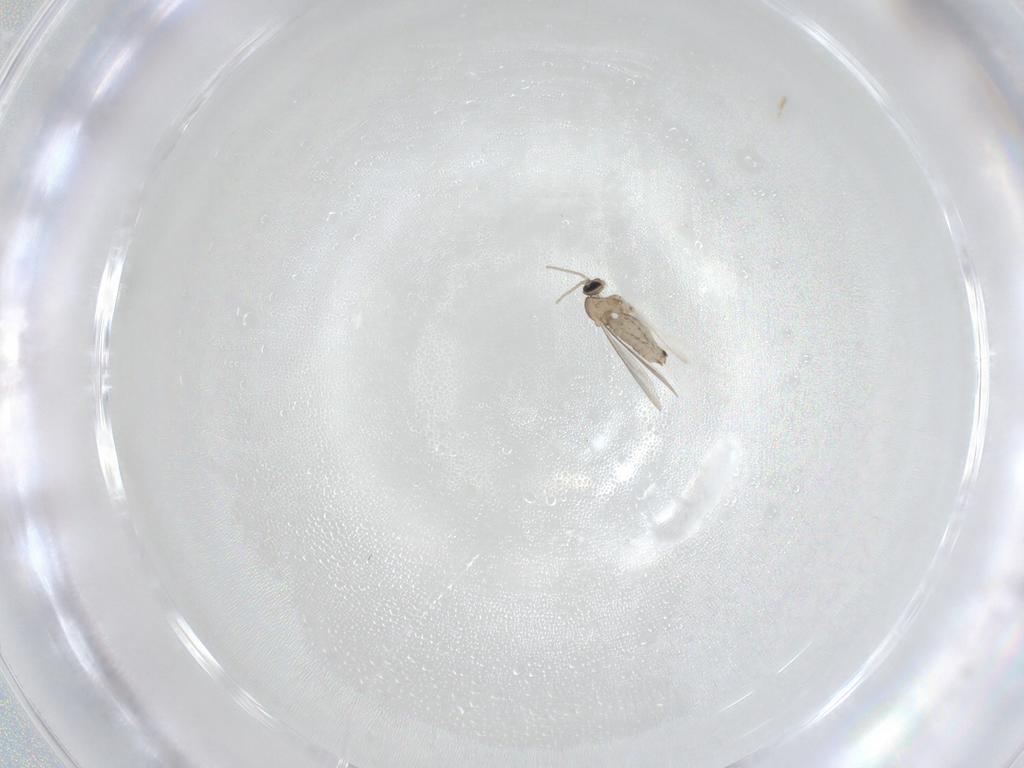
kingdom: Animalia
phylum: Arthropoda
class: Insecta
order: Diptera
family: Cecidomyiidae
